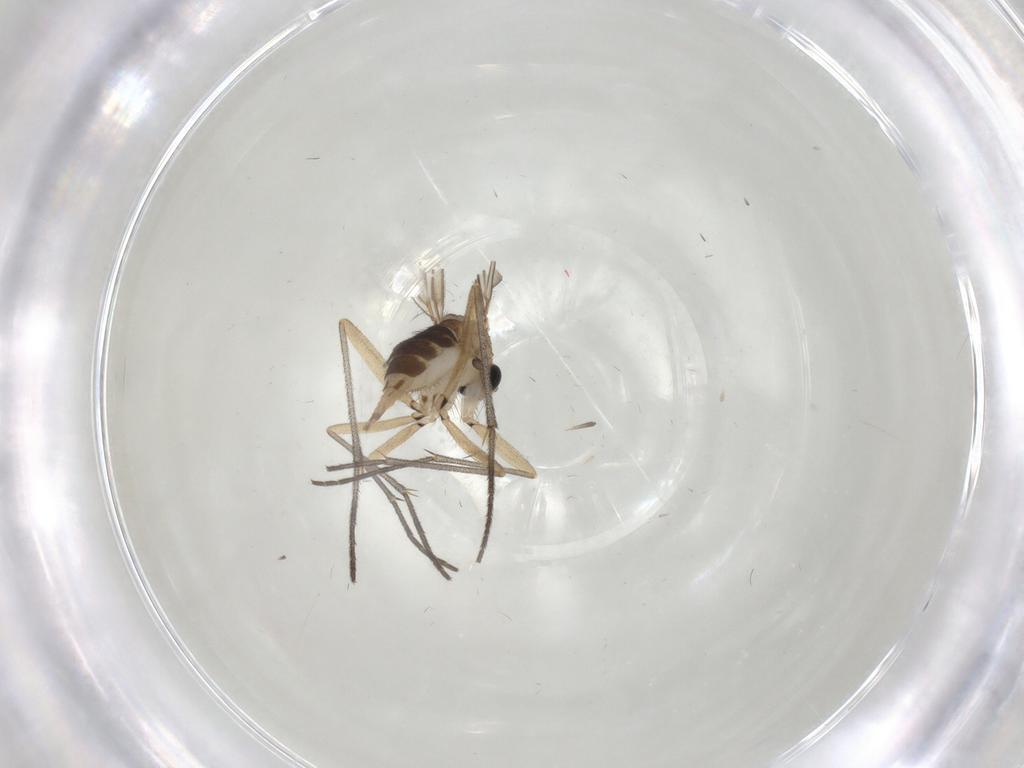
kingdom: Animalia
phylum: Arthropoda
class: Insecta
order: Diptera
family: Sciaridae
